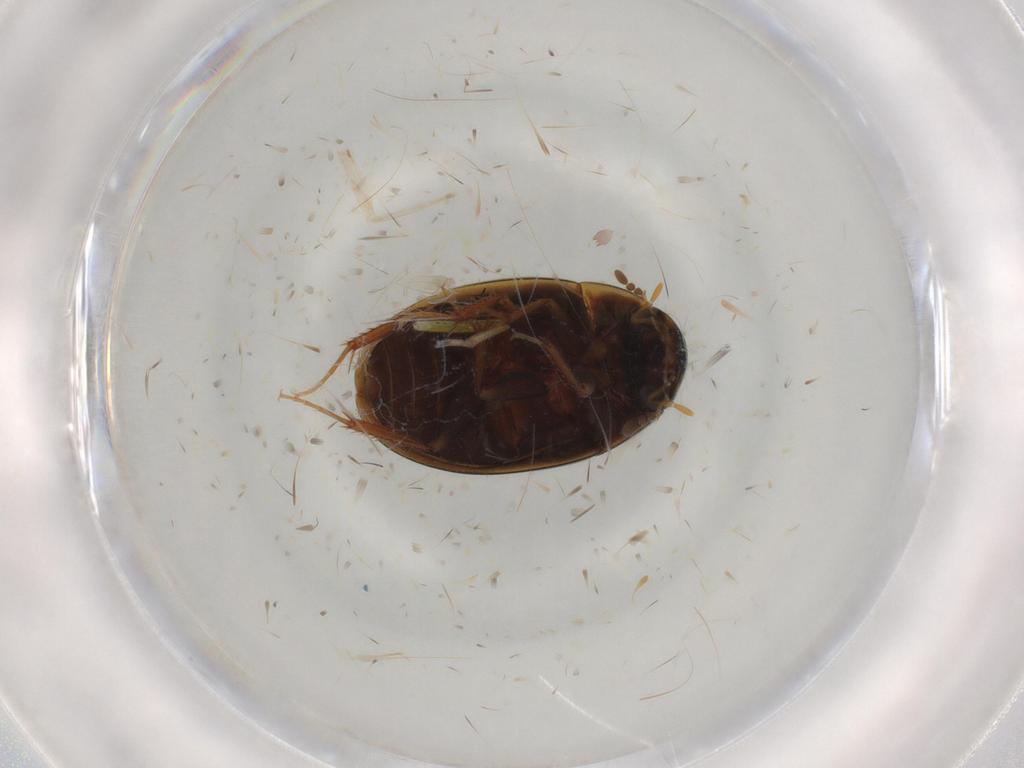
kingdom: Animalia
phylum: Arthropoda
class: Insecta
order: Coleoptera
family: Hydrophilidae
